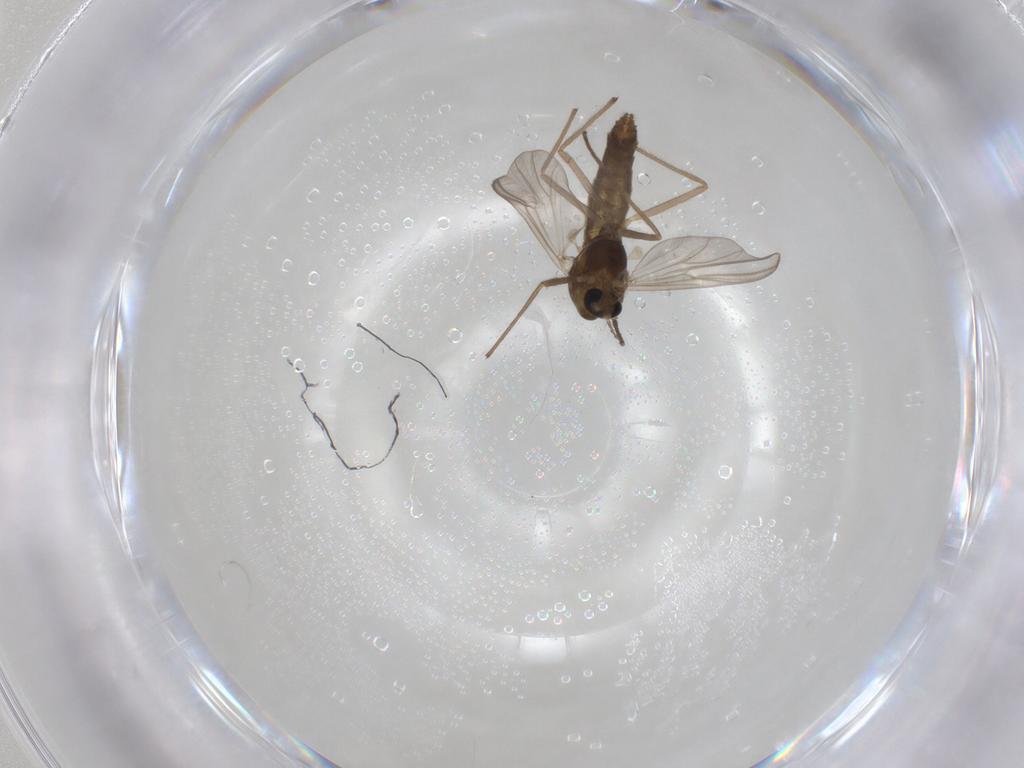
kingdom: Animalia
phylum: Arthropoda
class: Insecta
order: Diptera
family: Chironomidae
